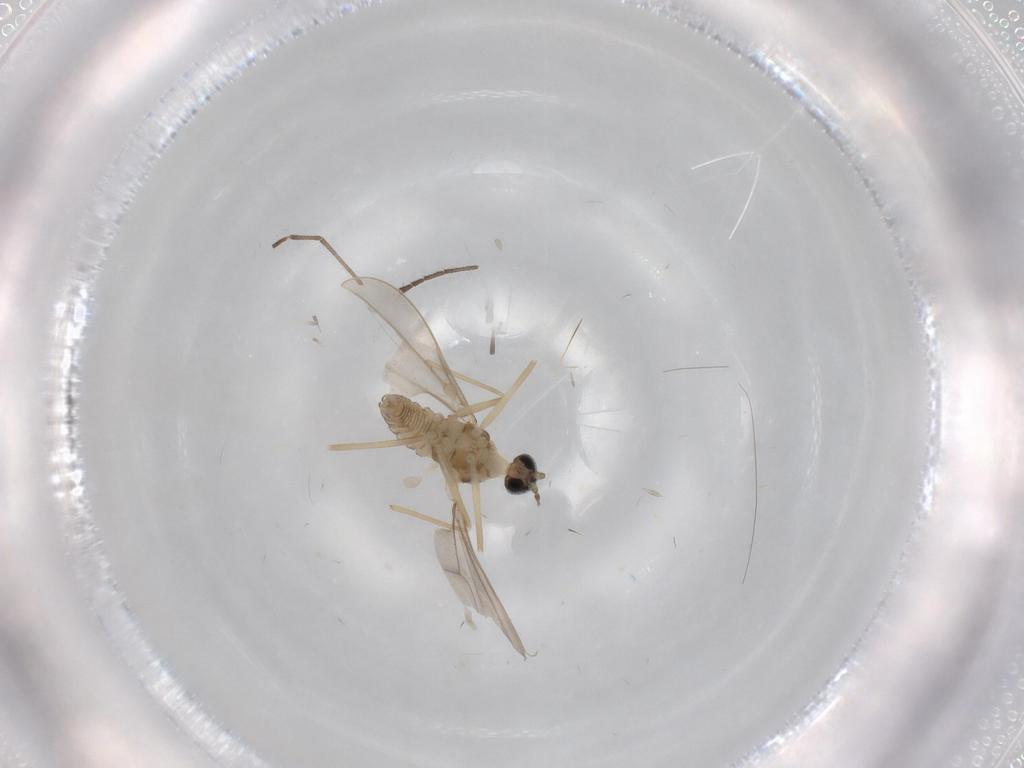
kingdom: Animalia
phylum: Arthropoda
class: Insecta
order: Diptera
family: Cecidomyiidae
